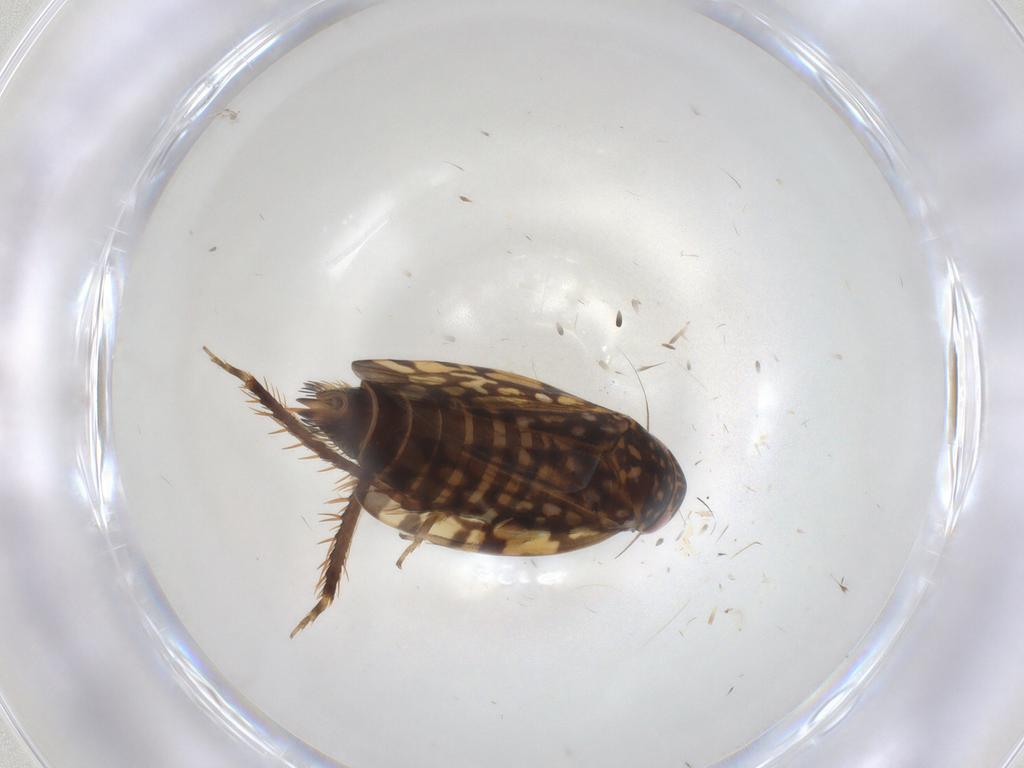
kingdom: Animalia
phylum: Arthropoda
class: Insecta
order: Hemiptera
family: Cicadellidae
